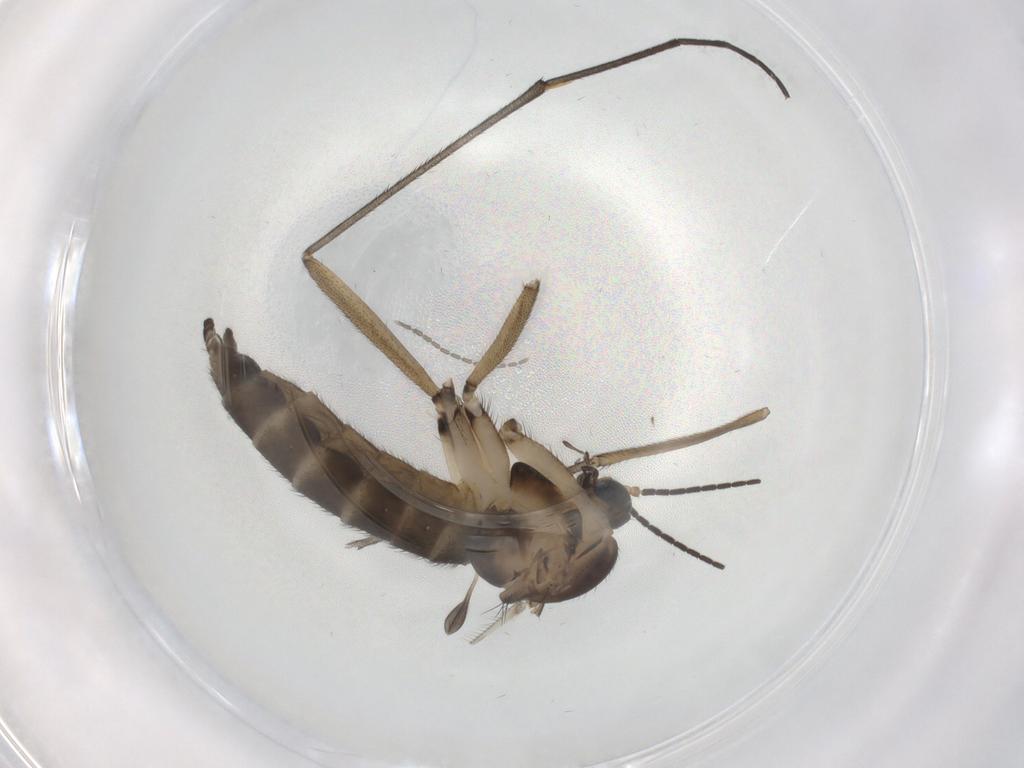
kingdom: Animalia
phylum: Arthropoda
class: Insecta
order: Diptera
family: Sciaridae
